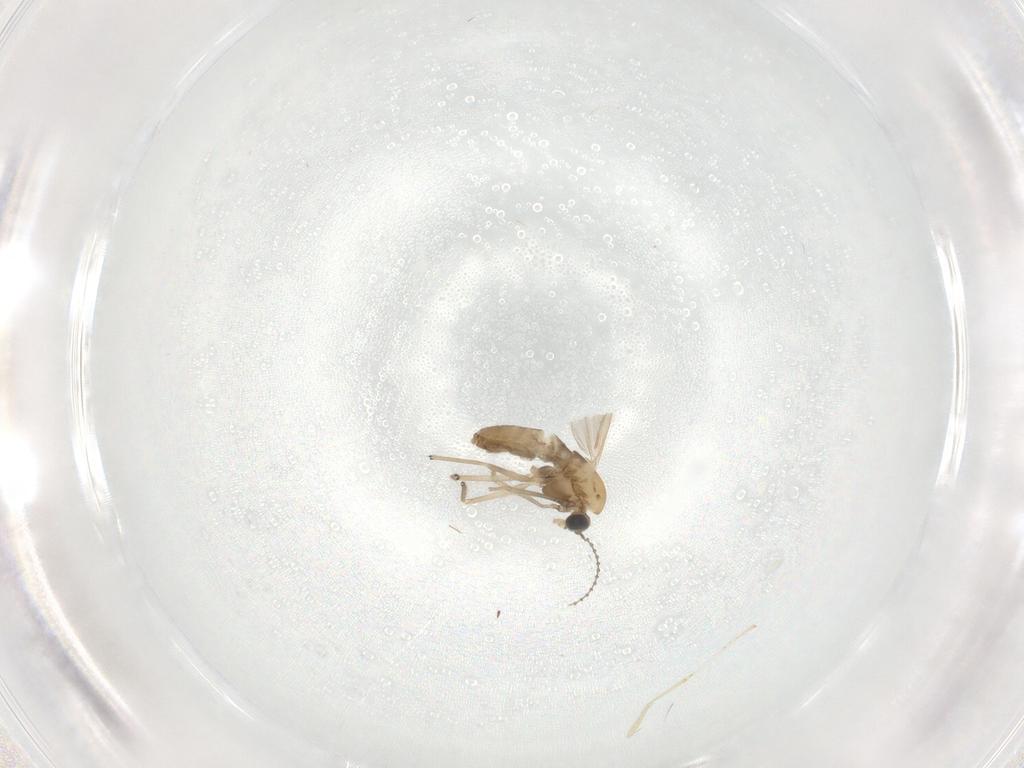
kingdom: Animalia
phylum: Arthropoda
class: Insecta
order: Diptera
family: Chironomidae
